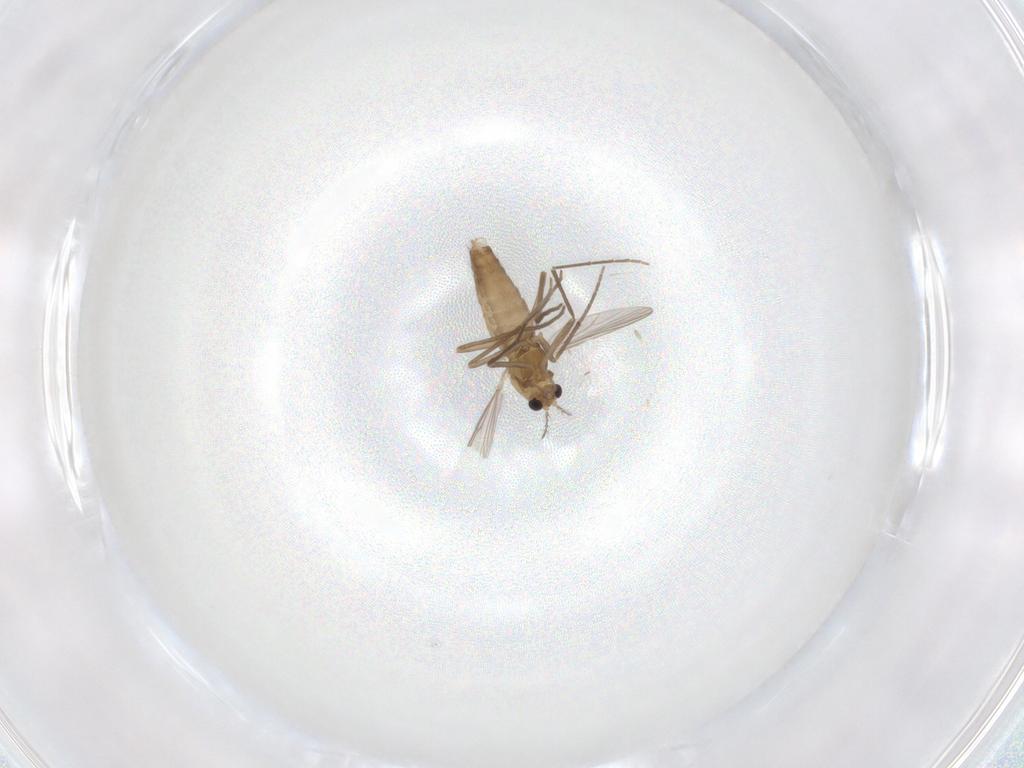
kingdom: Animalia
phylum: Arthropoda
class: Insecta
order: Diptera
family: Chironomidae
